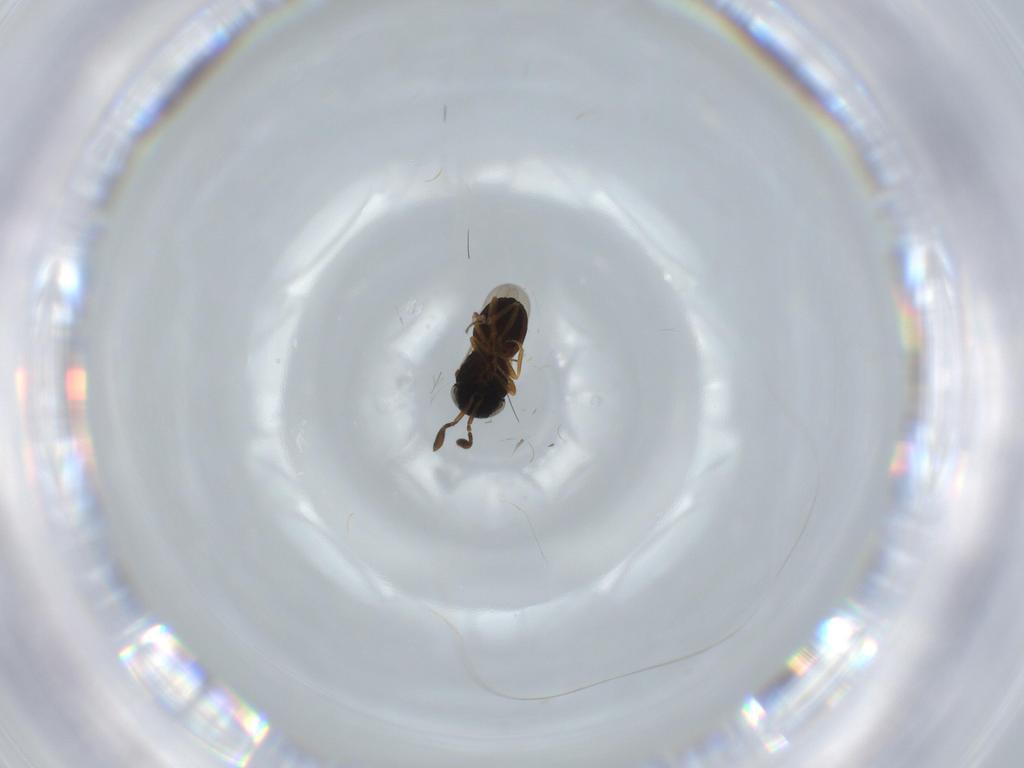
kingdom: Animalia
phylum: Arthropoda
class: Insecta
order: Hymenoptera
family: Scelionidae
